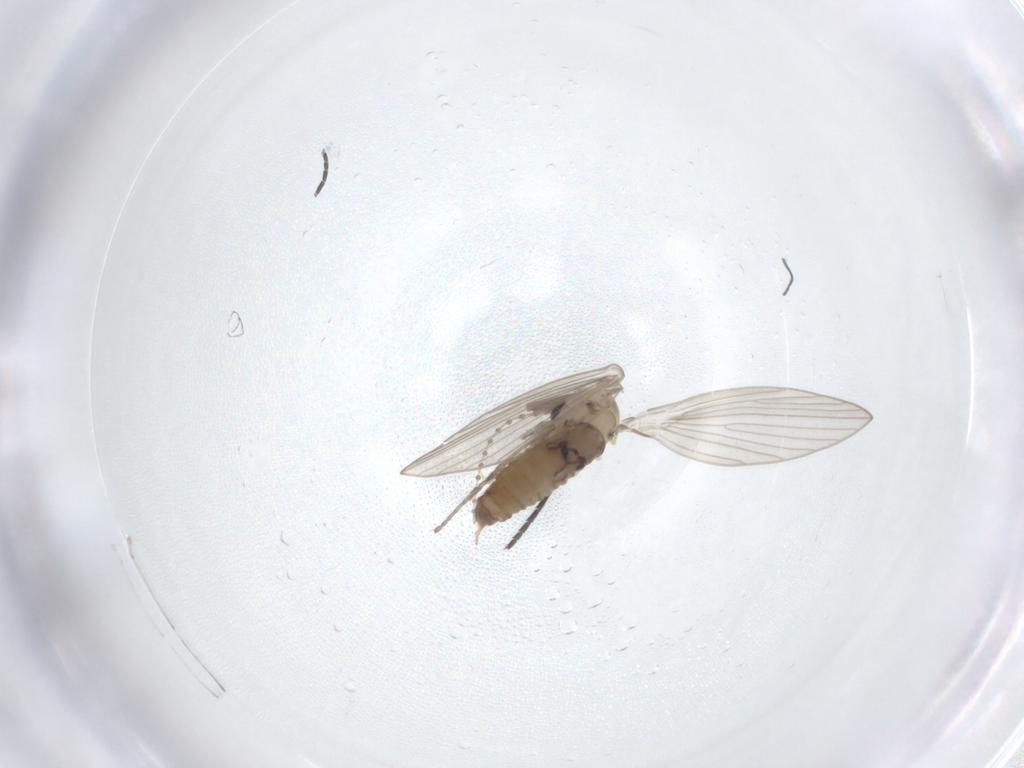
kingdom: Animalia
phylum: Arthropoda
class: Insecta
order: Diptera
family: Psychodidae
